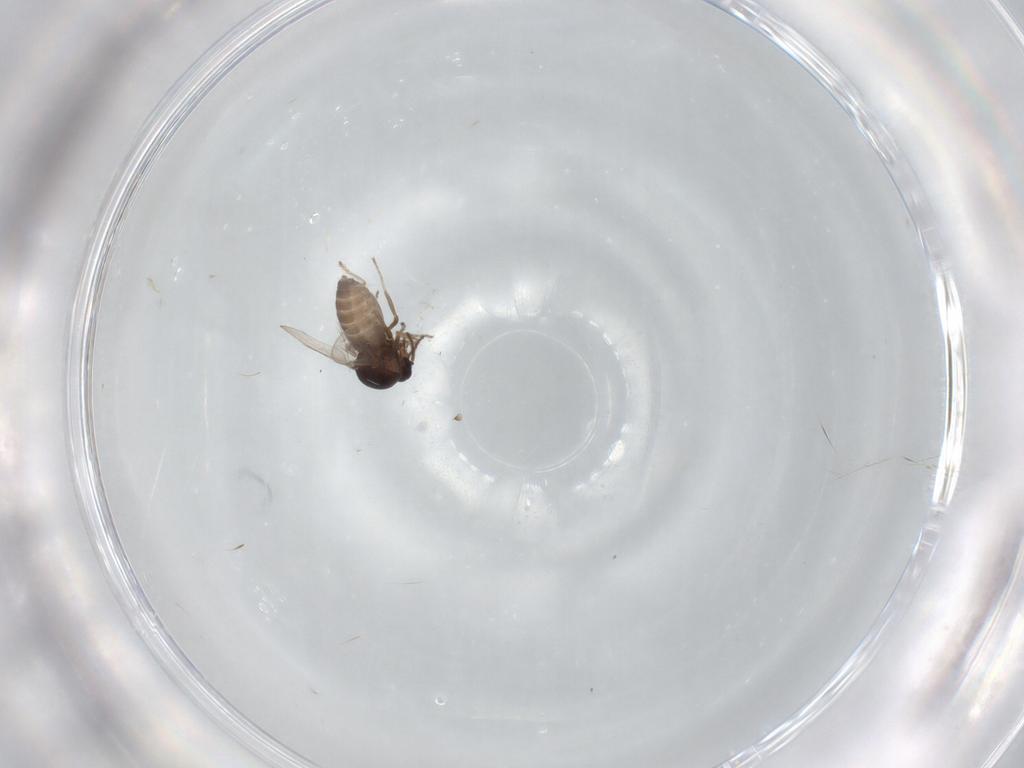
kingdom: Animalia
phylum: Arthropoda
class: Insecta
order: Diptera
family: Ceratopogonidae
